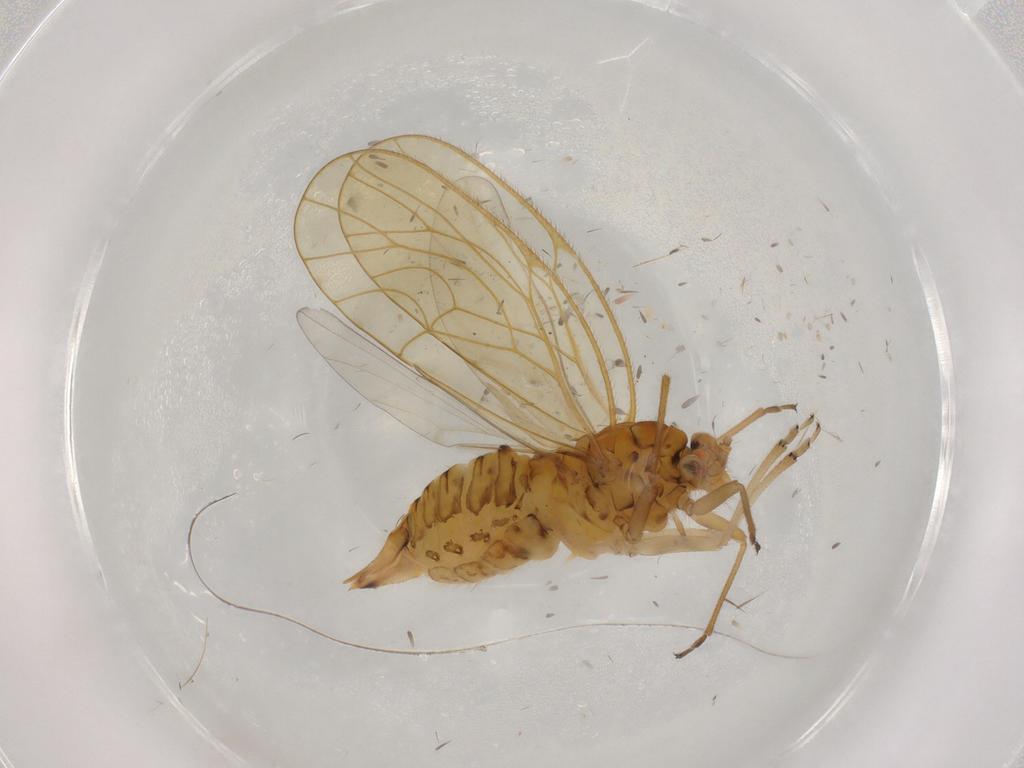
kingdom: Animalia
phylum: Arthropoda
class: Insecta
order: Hemiptera
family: Psyllidae
